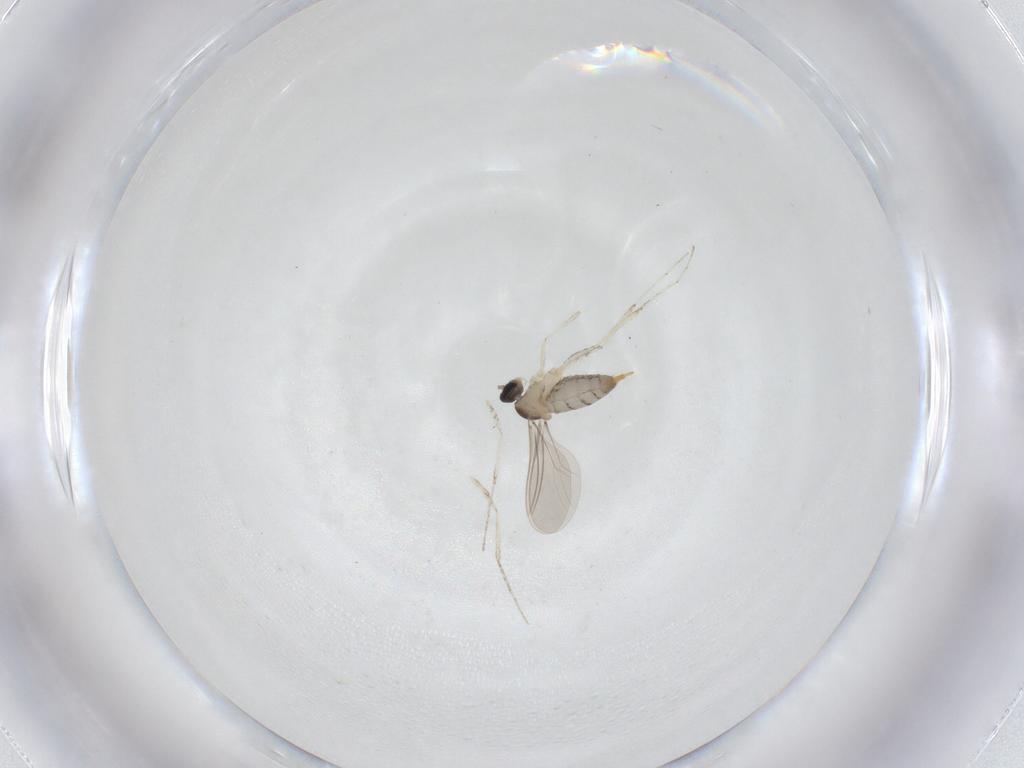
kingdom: Animalia
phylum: Arthropoda
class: Insecta
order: Diptera
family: Cecidomyiidae
